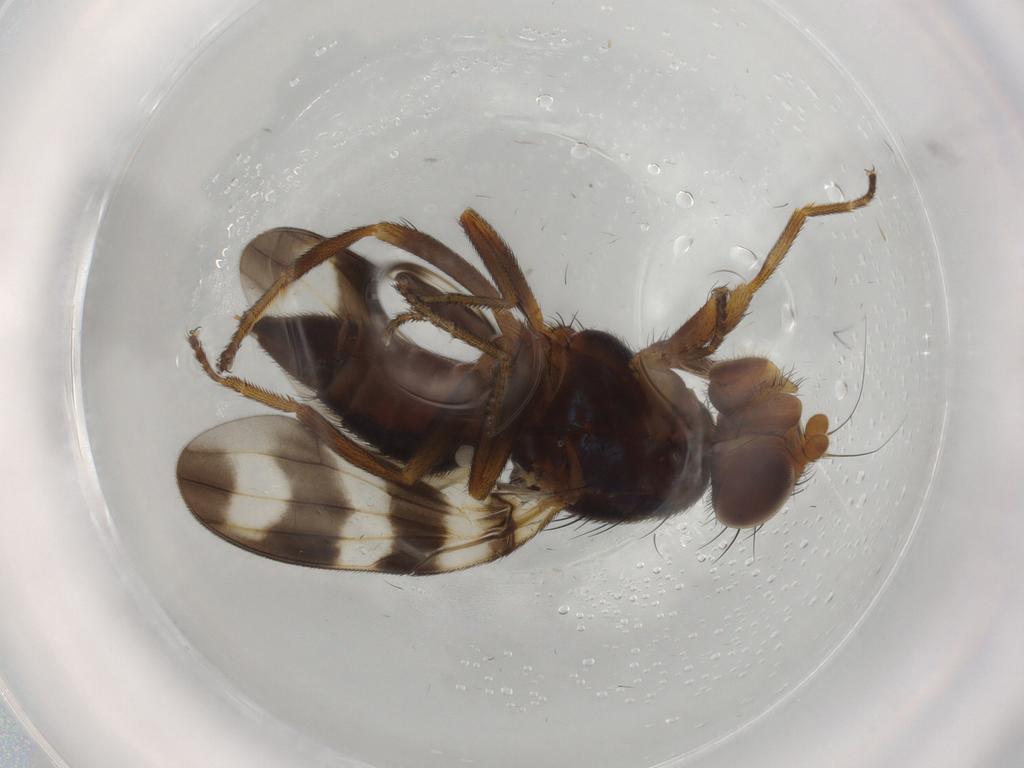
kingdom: Animalia
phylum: Arthropoda
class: Insecta
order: Diptera
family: Ulidiidae
